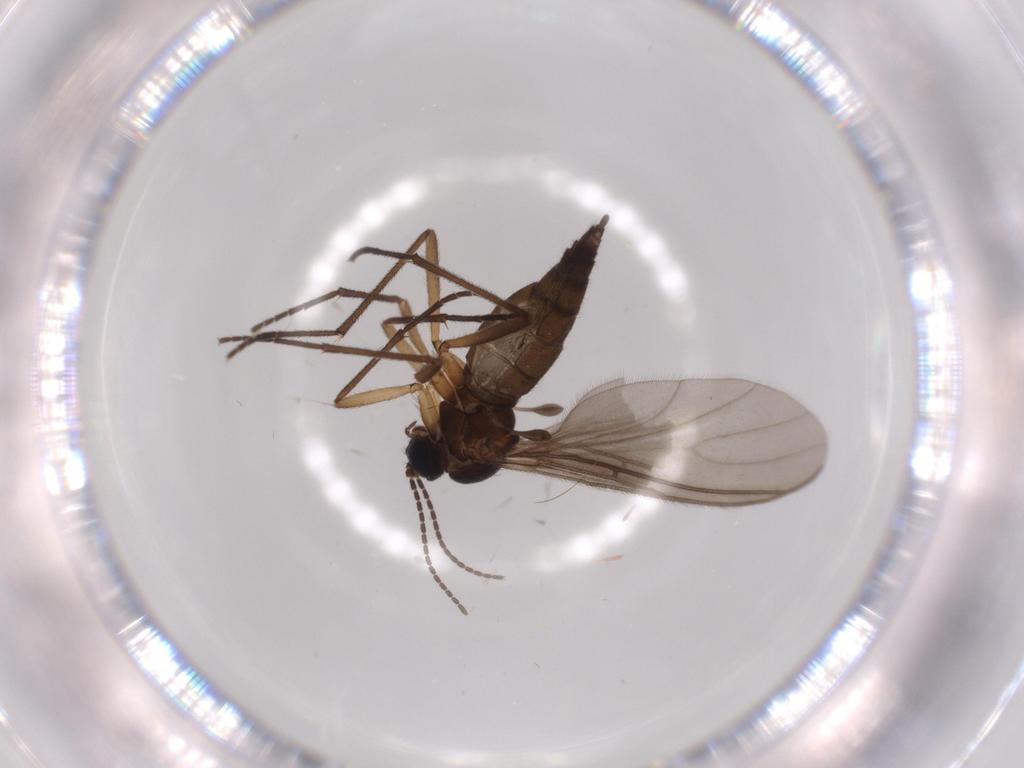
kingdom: Animalia
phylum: Arthropoda
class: Insecta
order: Diptera
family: Sciaridae
